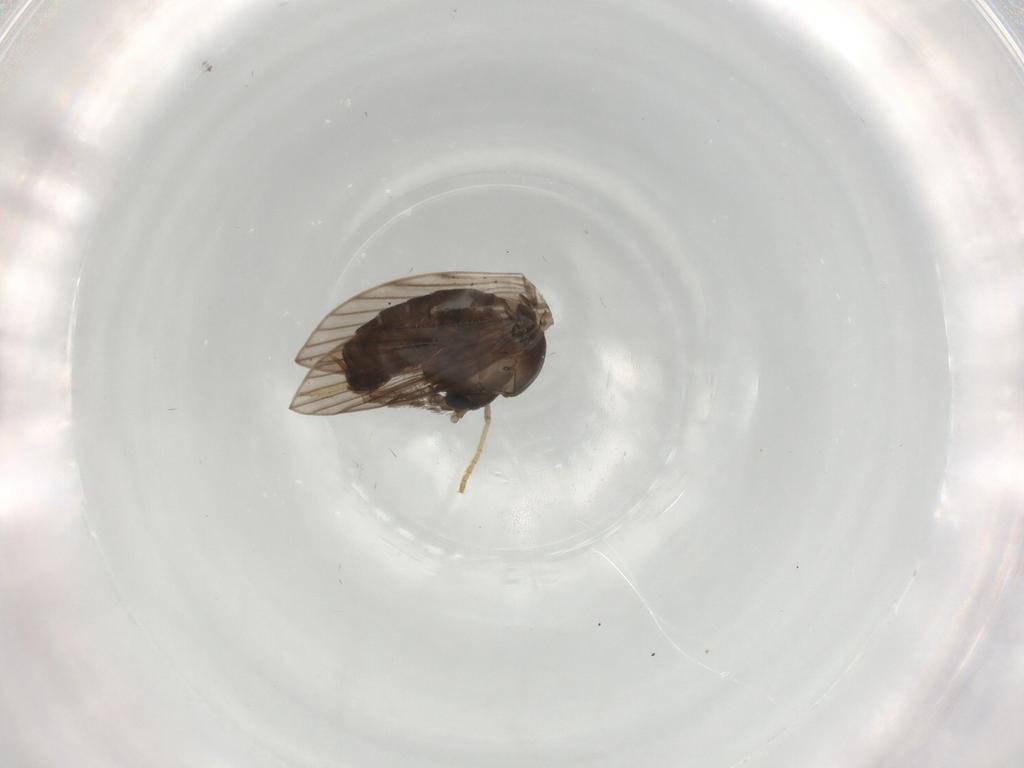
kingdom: Animalia
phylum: Arthropoda
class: Insecta
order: Diptera
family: Psychodidae
